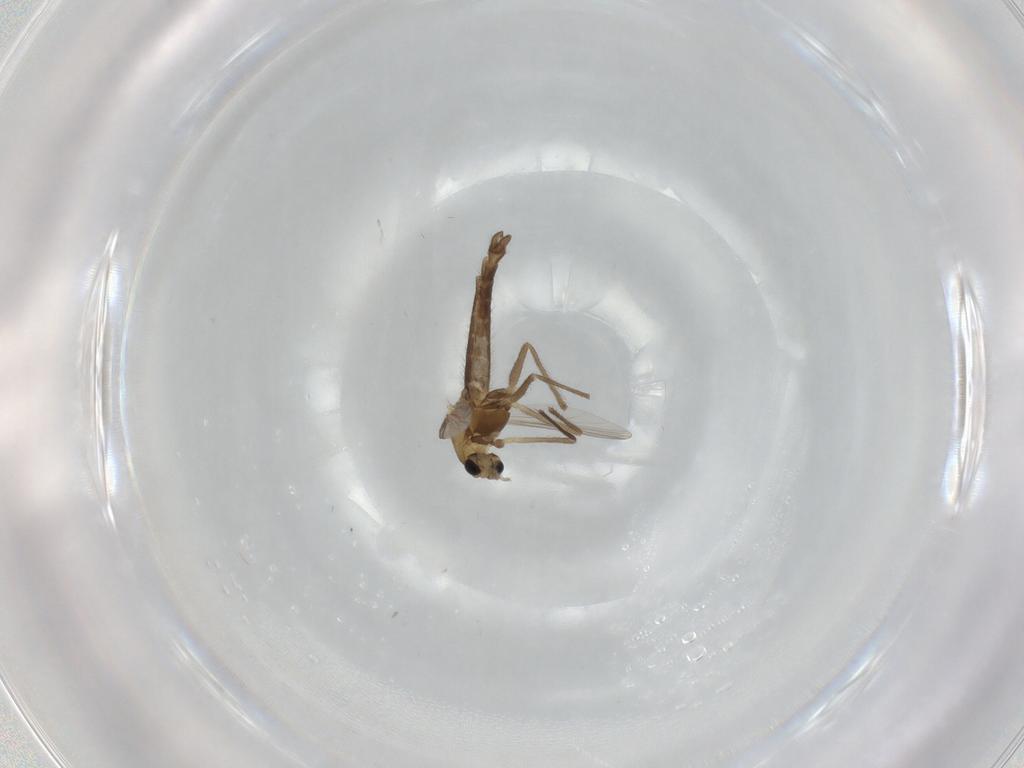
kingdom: Animalia
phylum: Arthropoda
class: Insecta
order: Diptera
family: Chironomidae
